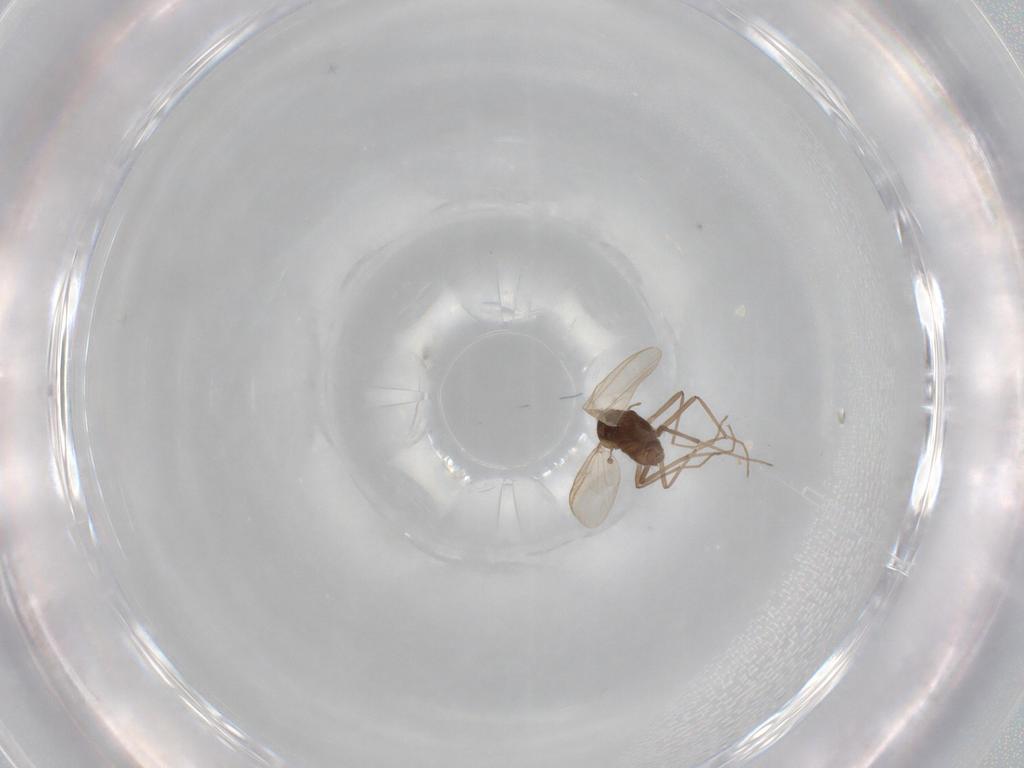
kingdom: Animalia
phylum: Arthropoda
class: Insecta
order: Diptera
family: Chironomidae
